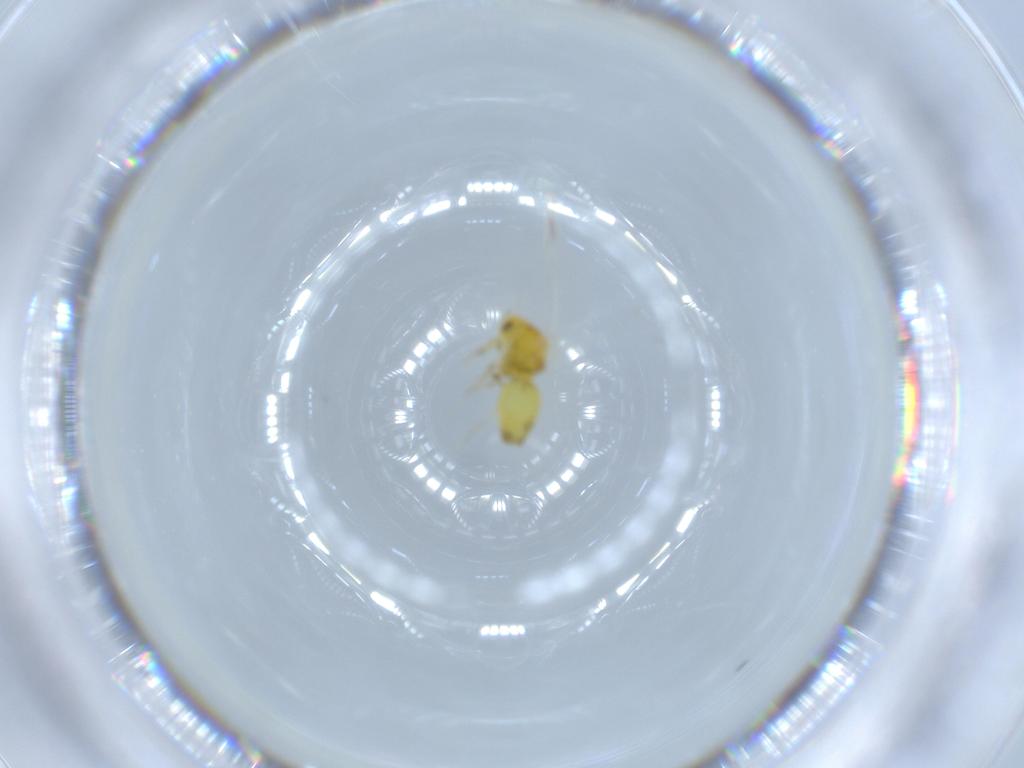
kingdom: Animalia
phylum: Arthropoda
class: Insecta
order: Hemiptera
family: Aleyrodidae
